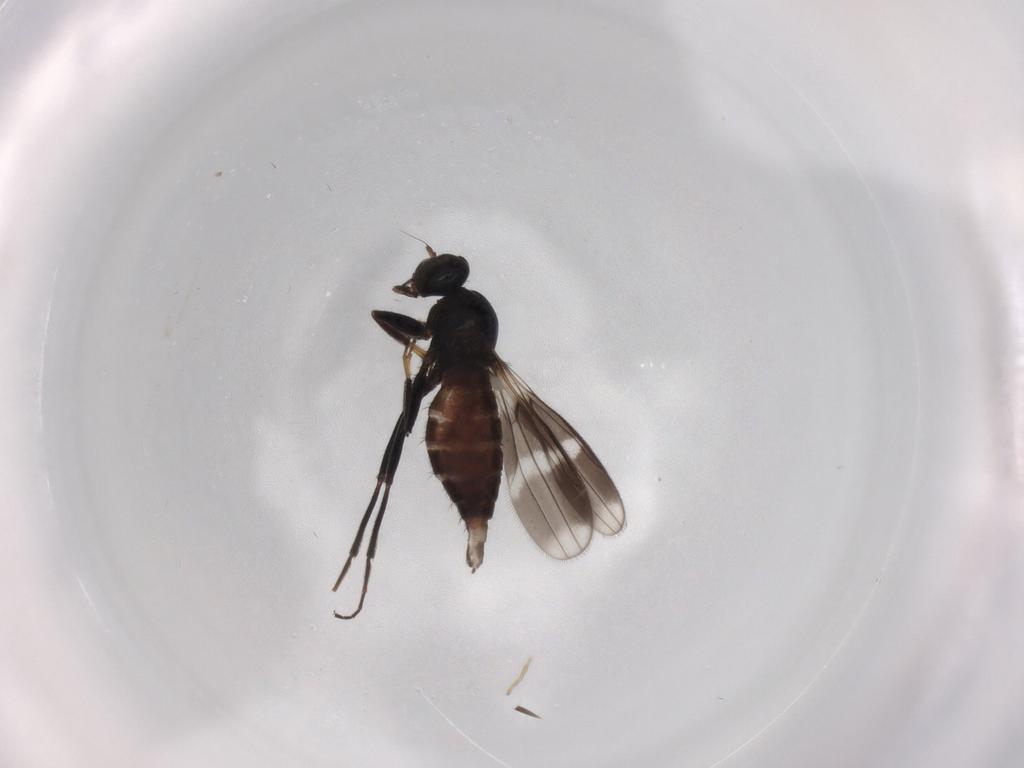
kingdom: Animalia
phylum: Arthropoda
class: Insecta
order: Diptera
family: Hybotidae
